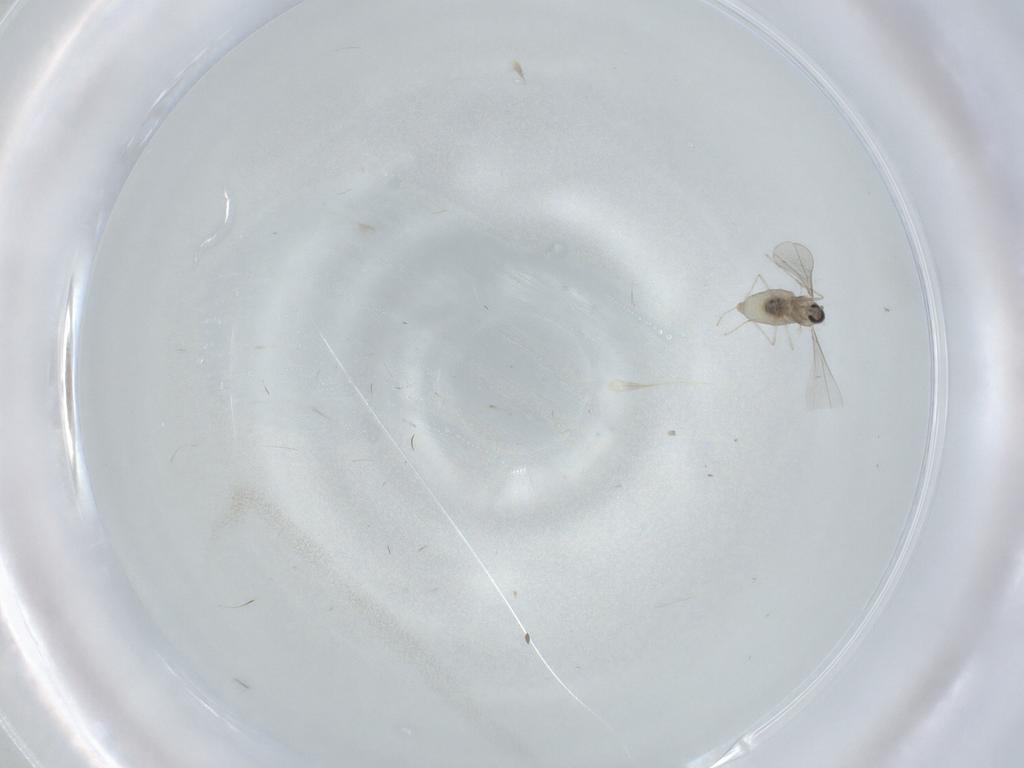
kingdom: Animalia
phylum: Arthropoda
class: Insecta
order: Diptera
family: Cecidomyiidae
